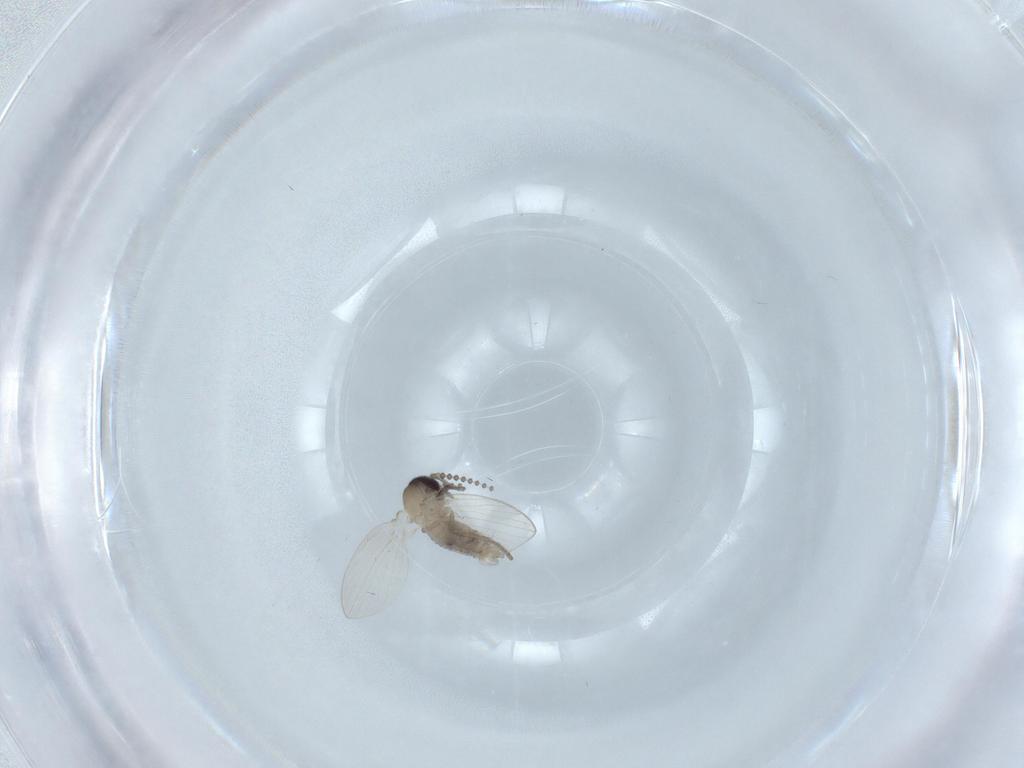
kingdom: Animalia
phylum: Arthropoda
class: Insecta
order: Diptera
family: Psychodidae
